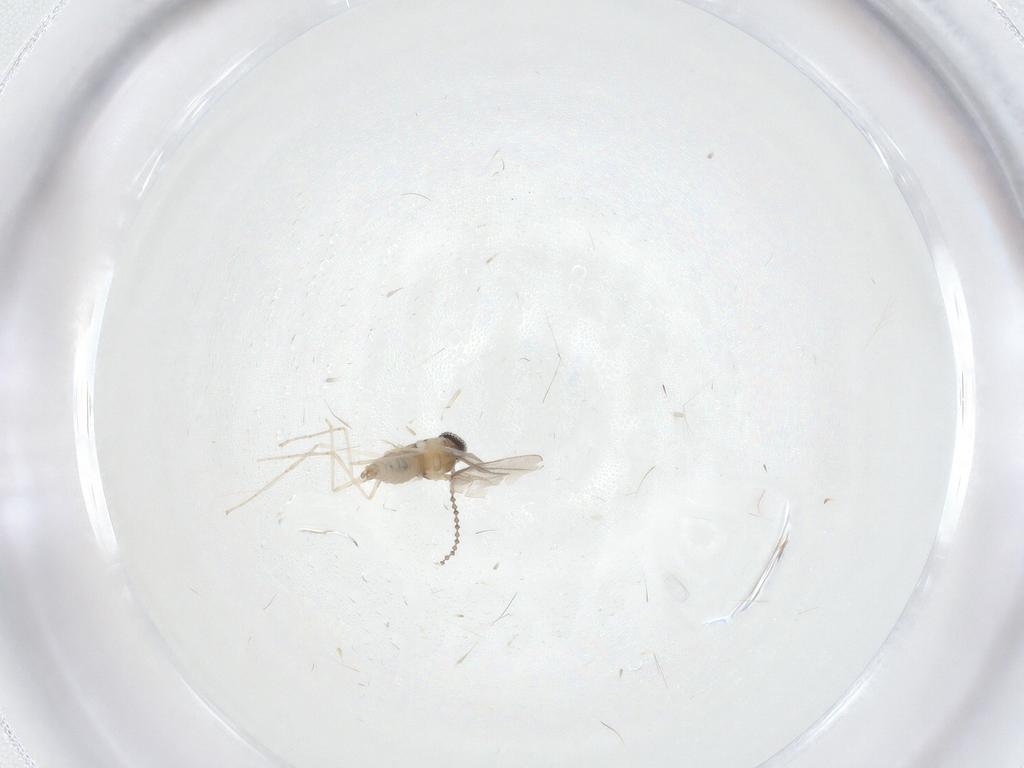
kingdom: Animalia
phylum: Arthropoda
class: Insecta
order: Diptera
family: Cecidomyiidae
